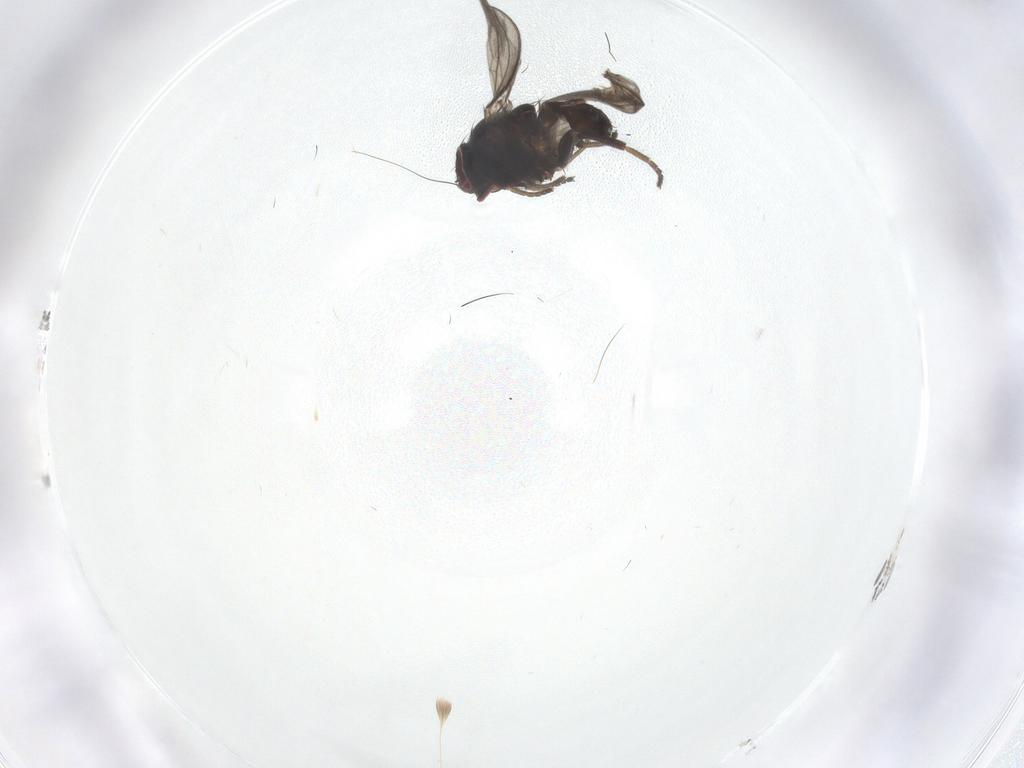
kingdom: Animalia
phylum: Arthropoda
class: Insecta
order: Diptera
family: Milichiidae
